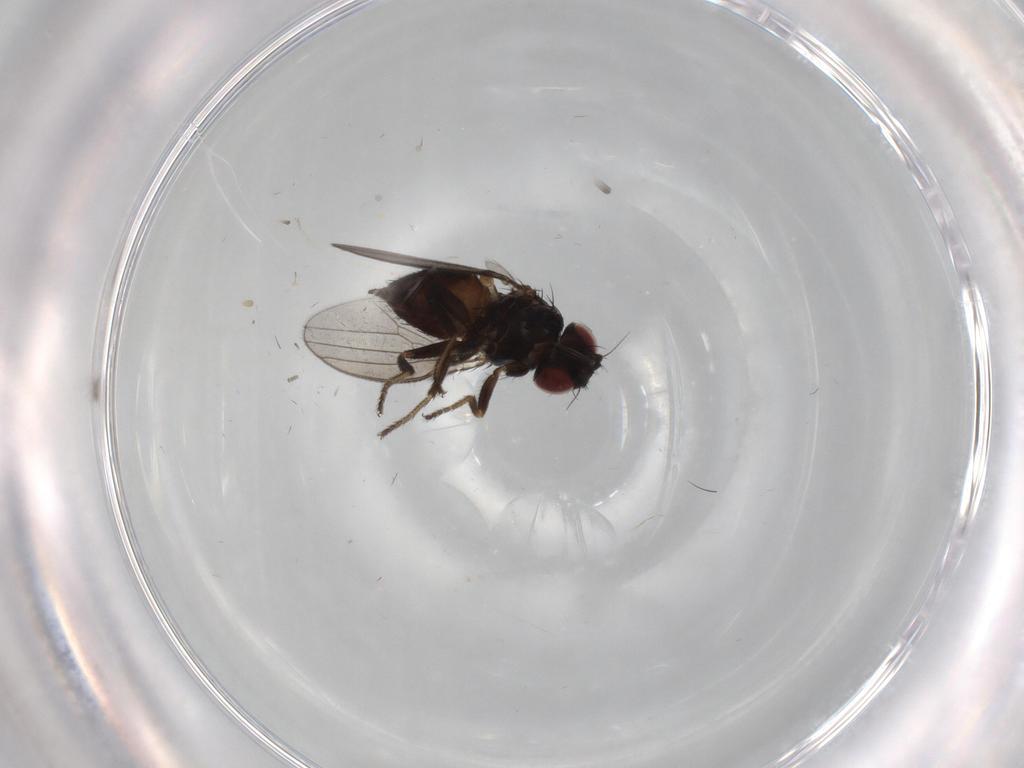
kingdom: Animalia
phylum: Arthropoda
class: Insecta
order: Diptera
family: Milichiidae
